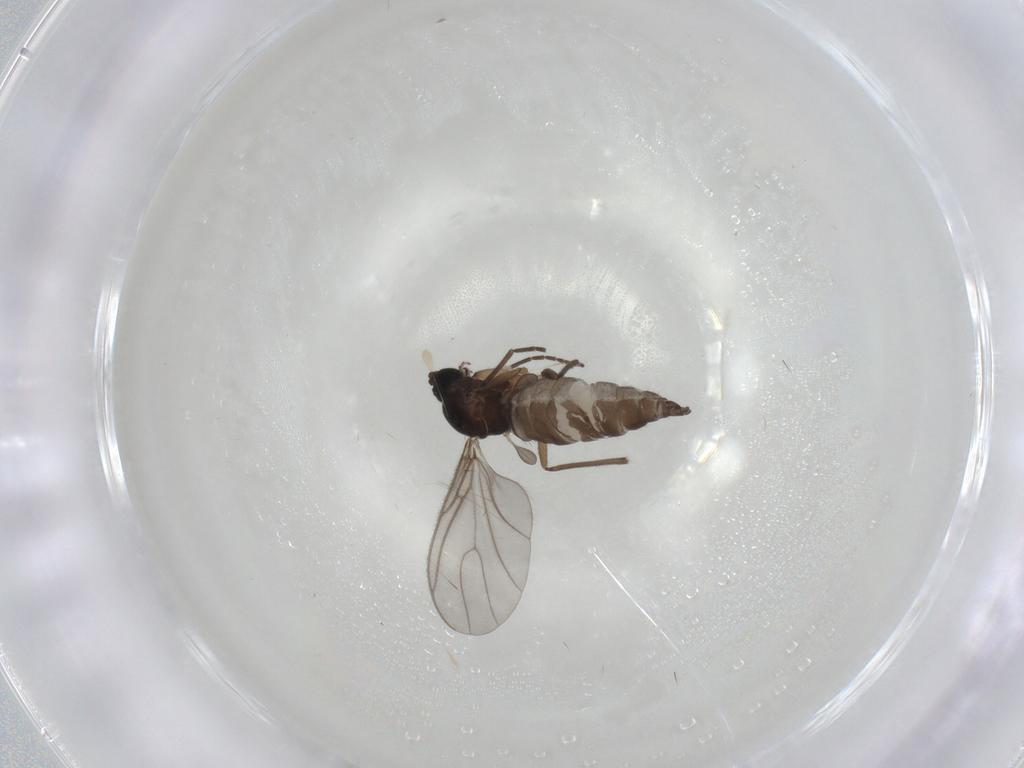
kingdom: Animalia
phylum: Arthropoda
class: Insecta
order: Diptera
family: Sciaridae
